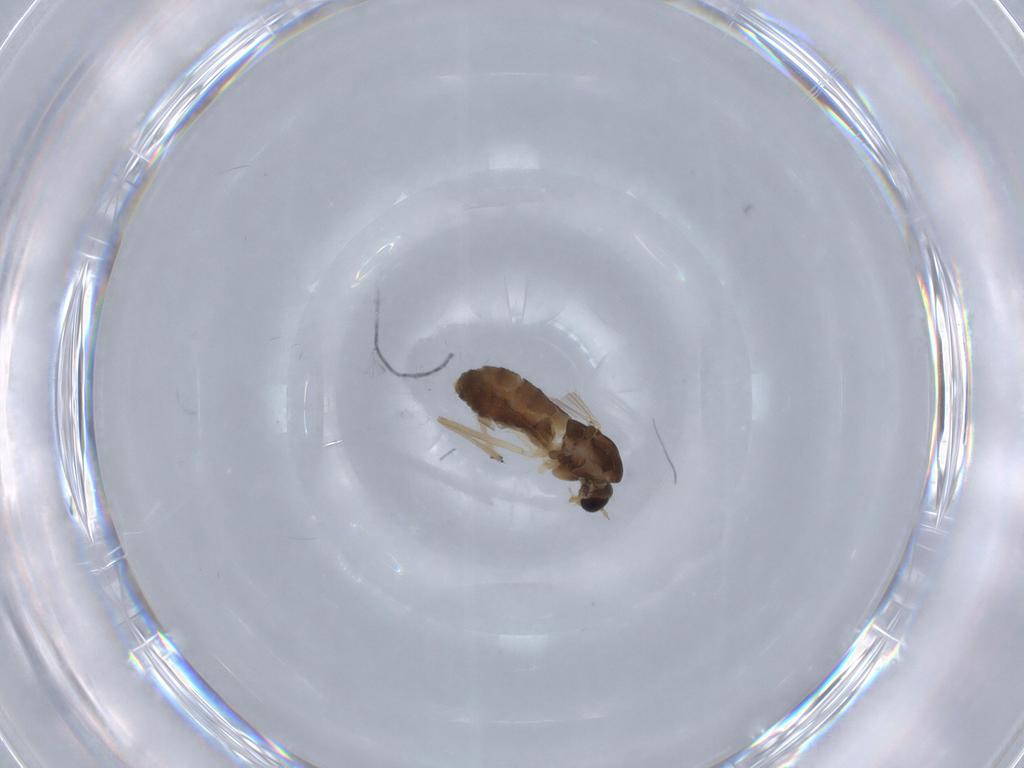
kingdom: Animalia
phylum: Arthropoda
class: Insecta
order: Diptera
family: Chironomidae
